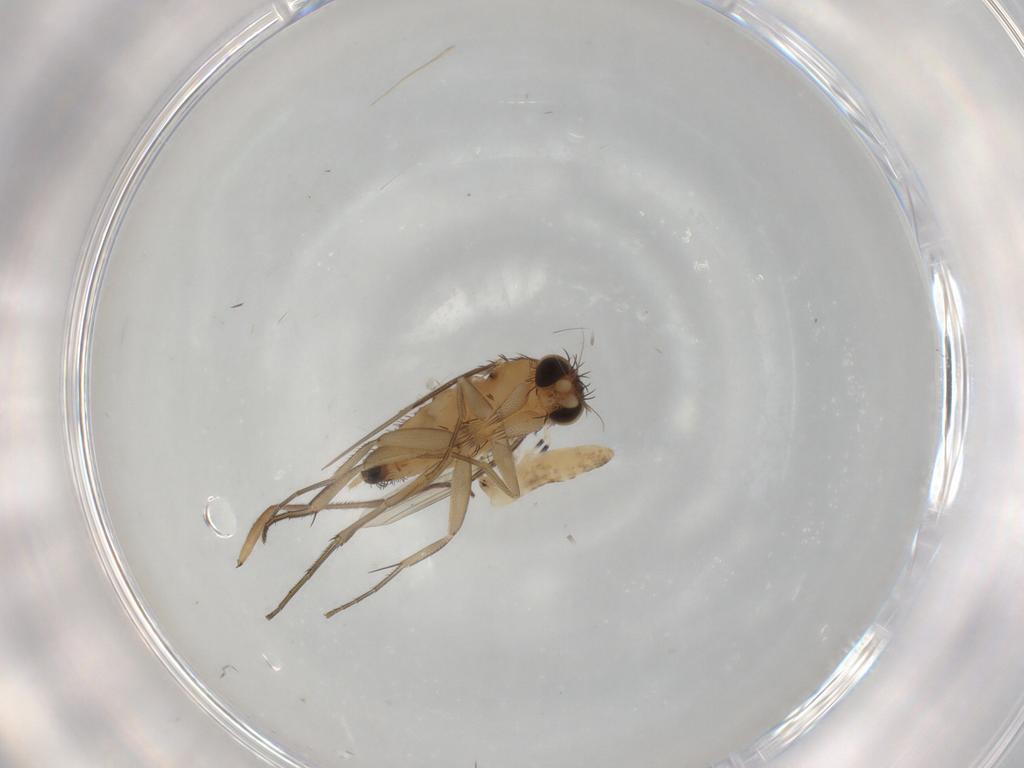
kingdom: Animalia
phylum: Arthropoda
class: Insecta
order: Diptera
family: Phoridae
